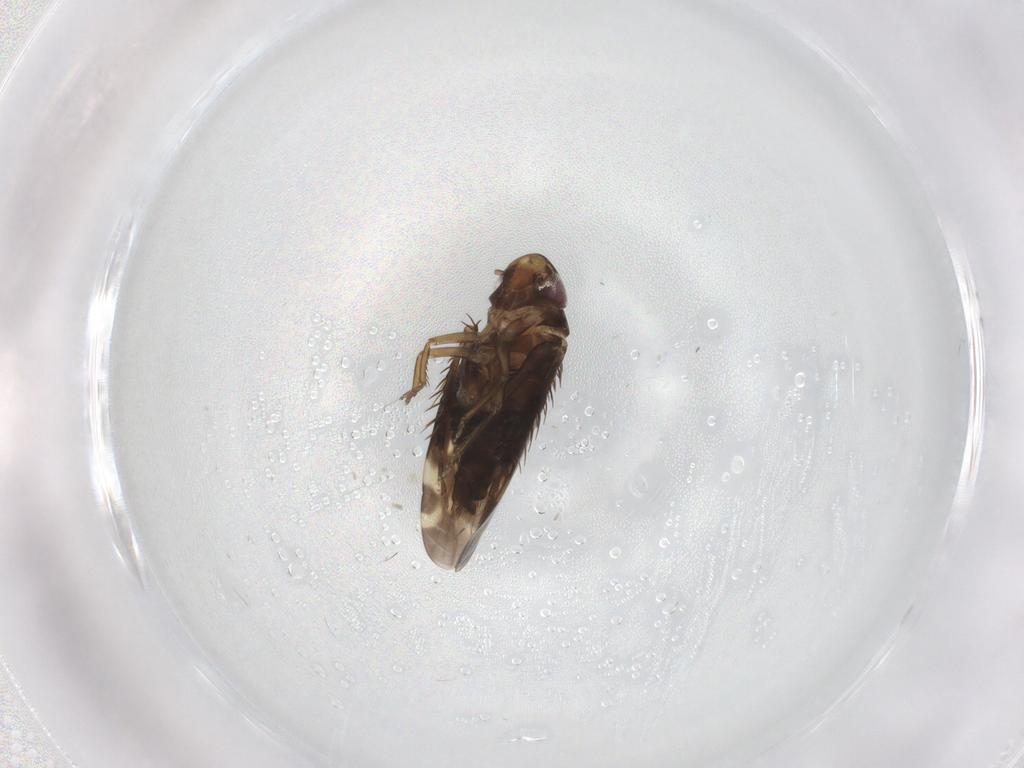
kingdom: Animalia
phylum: Arthropoda
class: Insecta
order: Hemiptera
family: Cicadellidae
